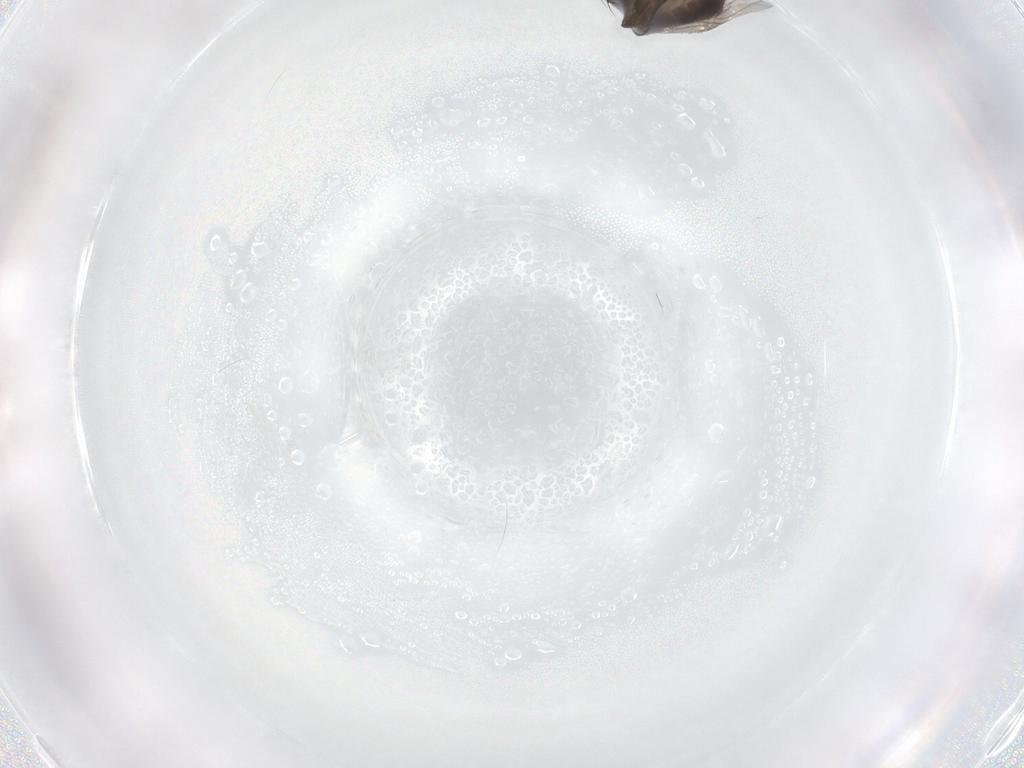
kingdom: Animalia
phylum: Arthropoda
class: Insecta
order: Diptera
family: Dolichopodidae
